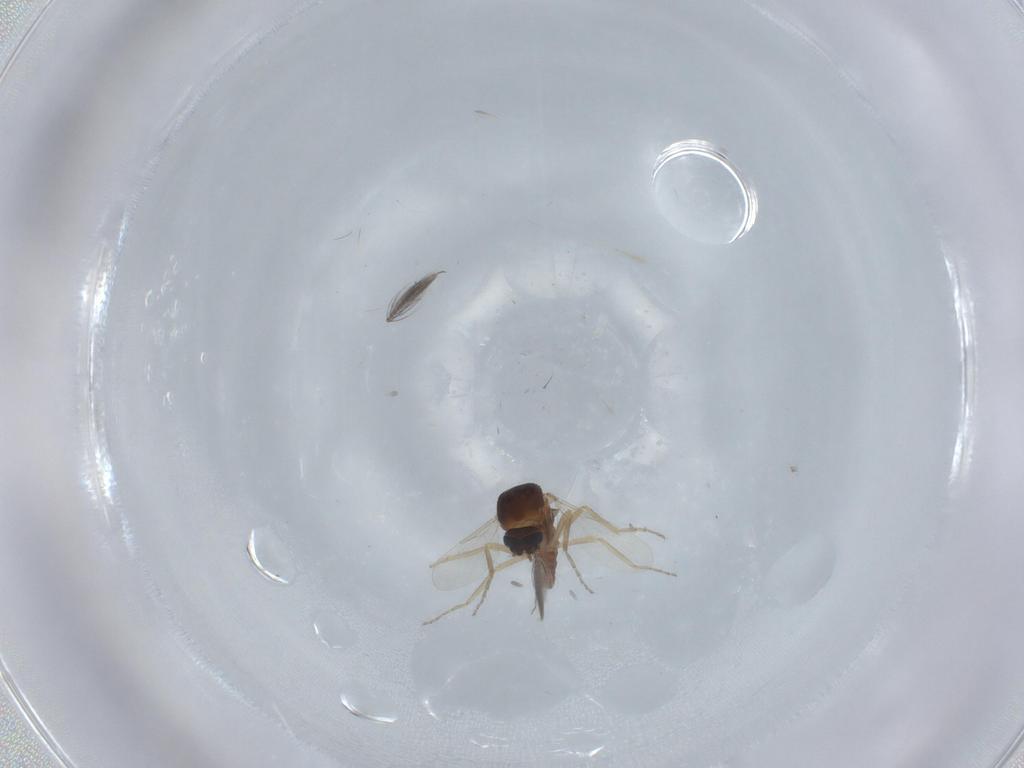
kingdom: Animalia
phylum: Arthropoda
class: Insecta
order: Diptera
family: Ceratopogonidae
